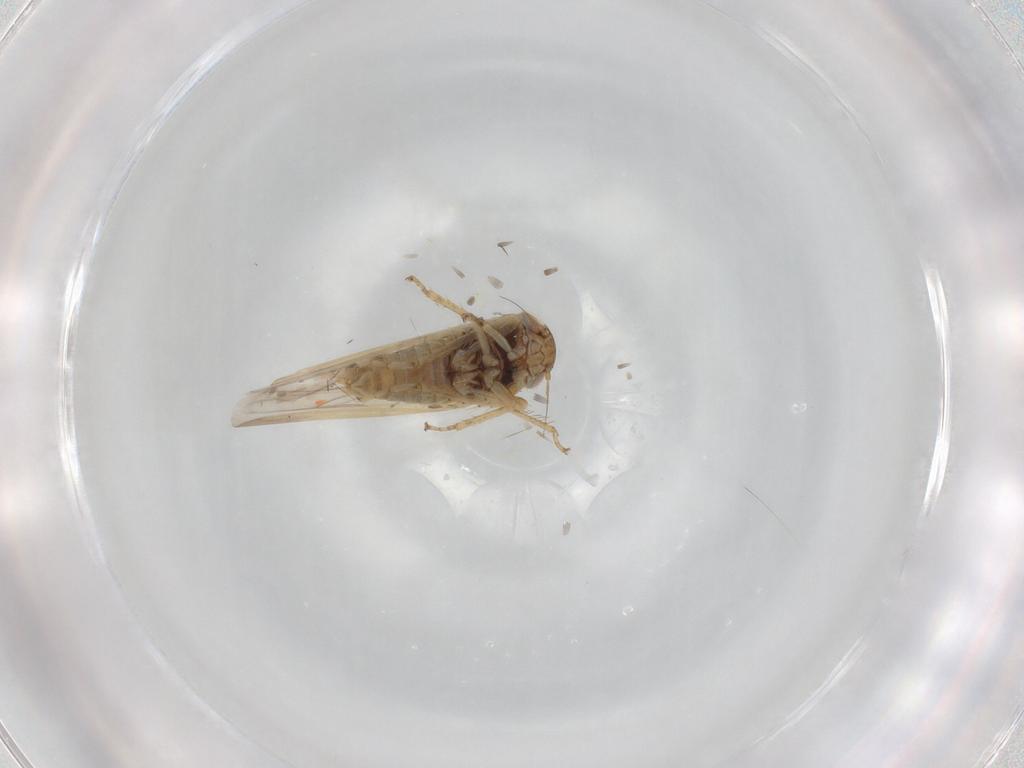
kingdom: Animalia
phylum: Arthropoda
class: Insecta
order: Hemiptera
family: Cicadellidae
